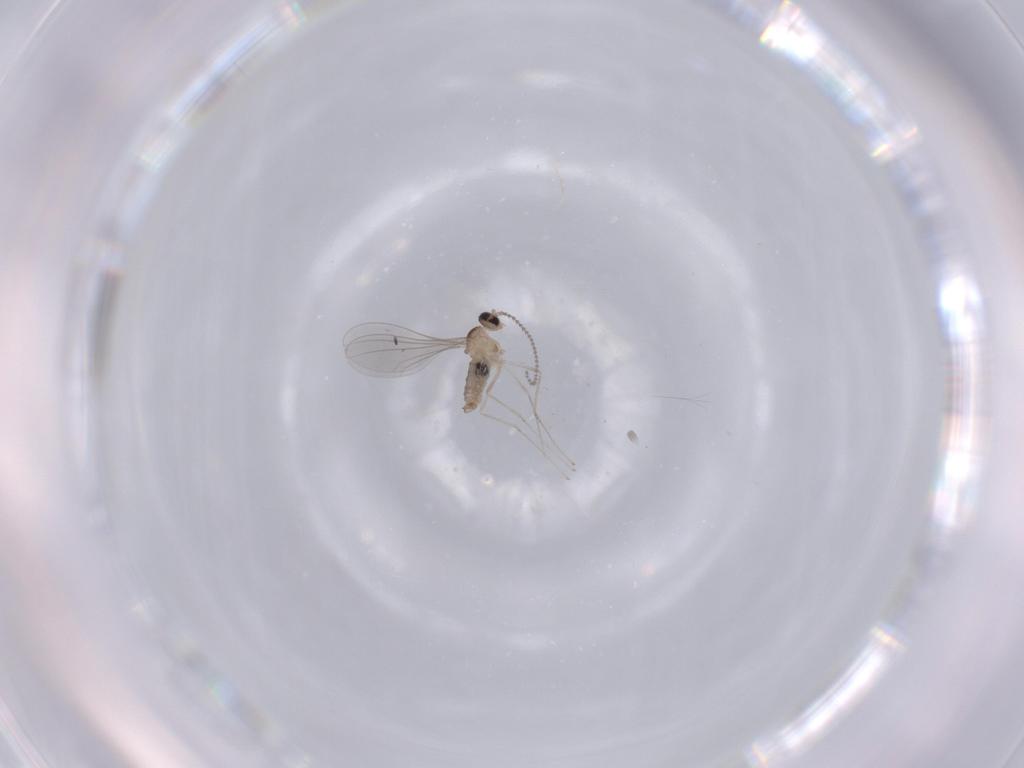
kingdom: Animalia
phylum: Arthropoda
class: Insecta
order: Diptera
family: Cecidomyiidae
